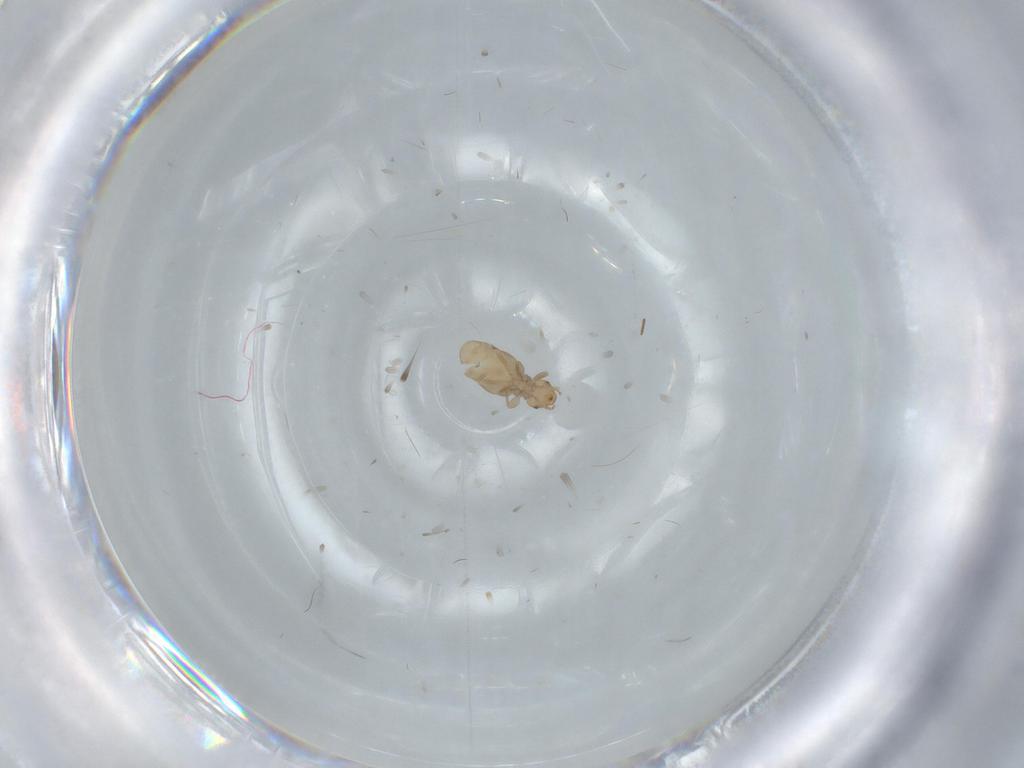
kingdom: Animalia
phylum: Arthropoda
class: Insecta
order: Psocodea
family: Liposcelididae
